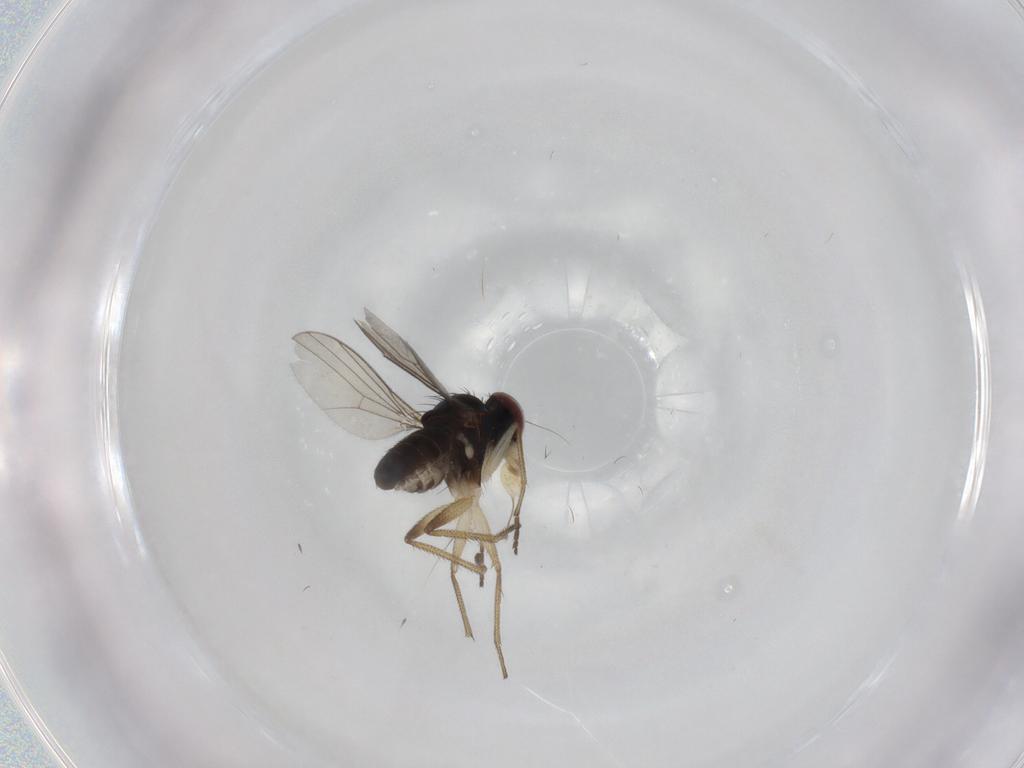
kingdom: Animalia
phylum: Arthropoda
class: Insecta
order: Diptera
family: Dolichopodidae
